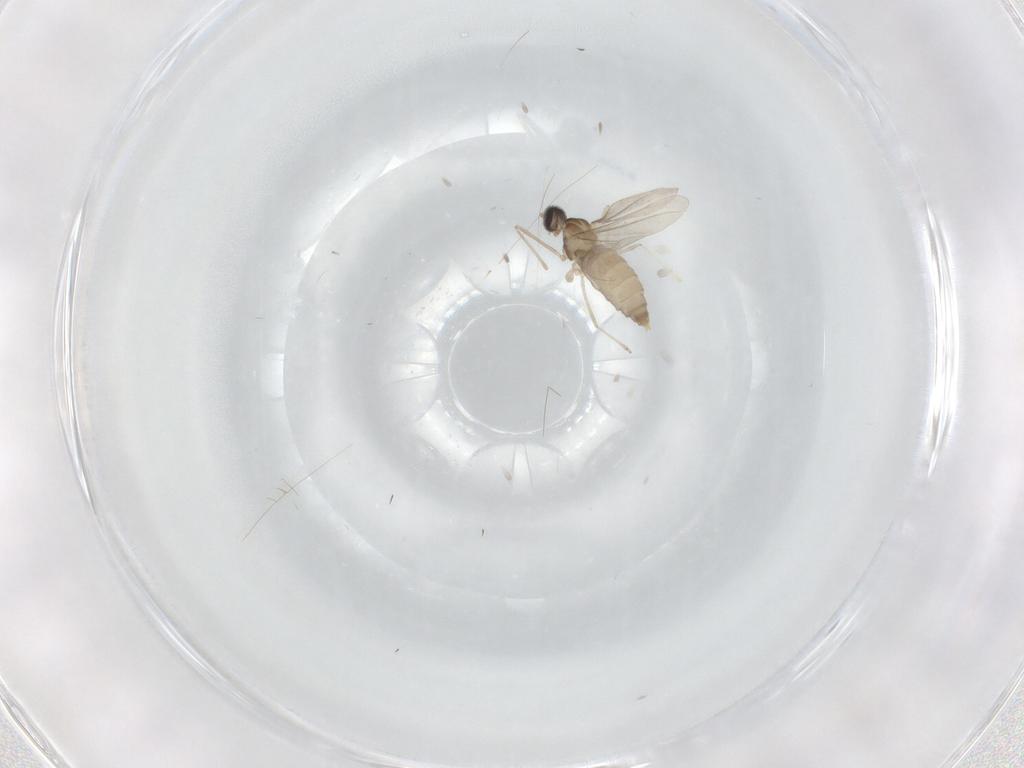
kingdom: Animalia
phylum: Arthropoda
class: Insecta
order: Diptera
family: Cecidomyiidae
